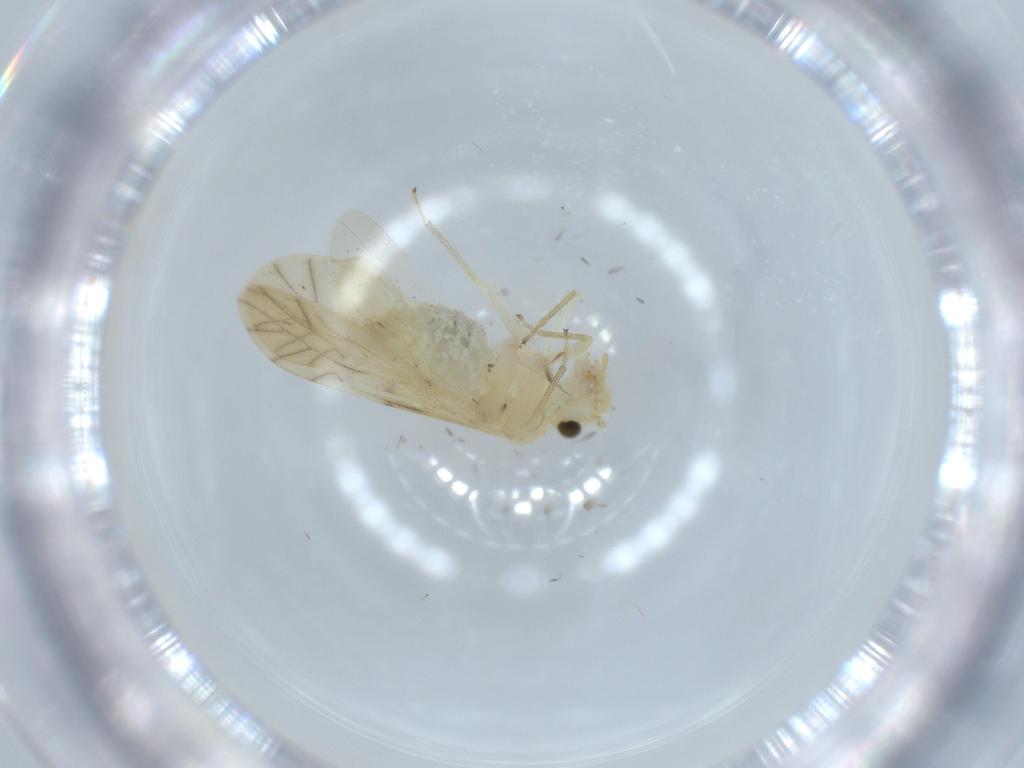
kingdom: Animalia
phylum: Arthropoda
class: Insecta
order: Psocodea
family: Caeciliusidae
